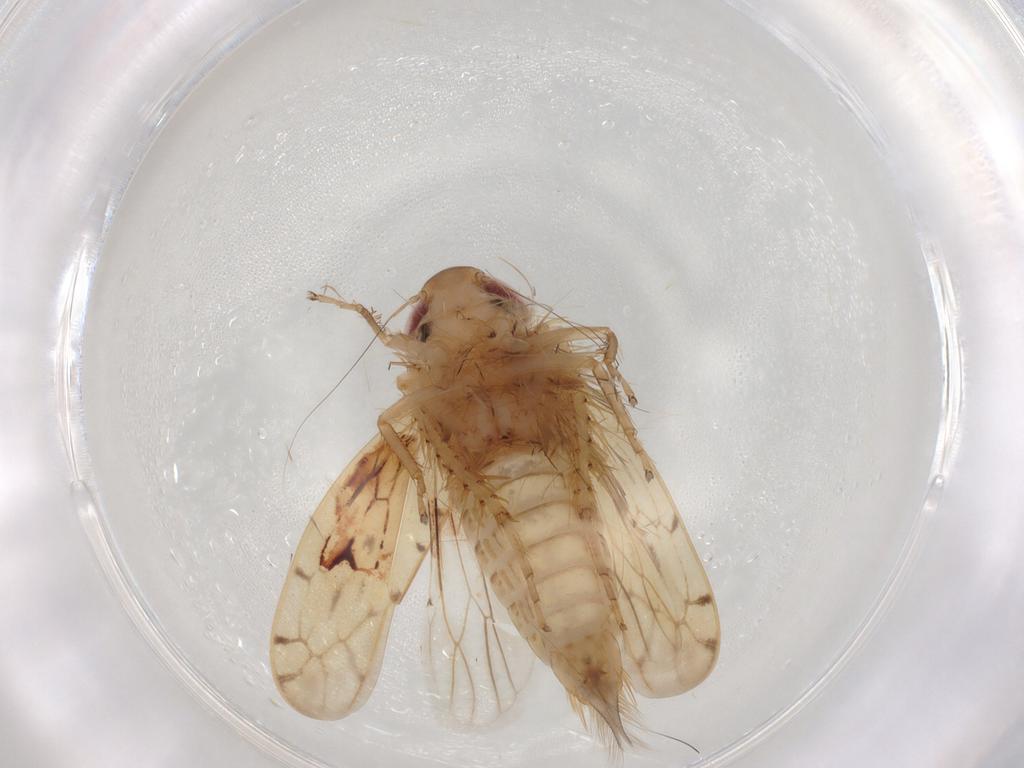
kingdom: Animalia
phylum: Arthropoda
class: Insecta
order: Hemiptera
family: Cicadellidae
